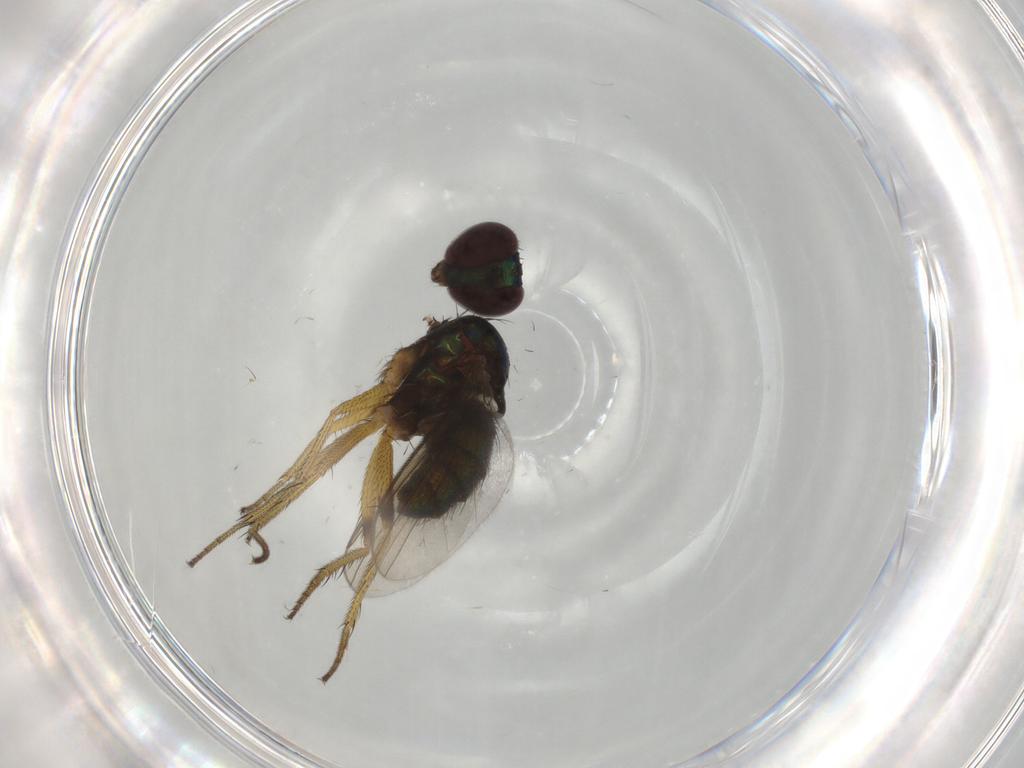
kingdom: Animalia
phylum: Arthropoda
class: Insecta
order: Diptera
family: Dolichopodidae
